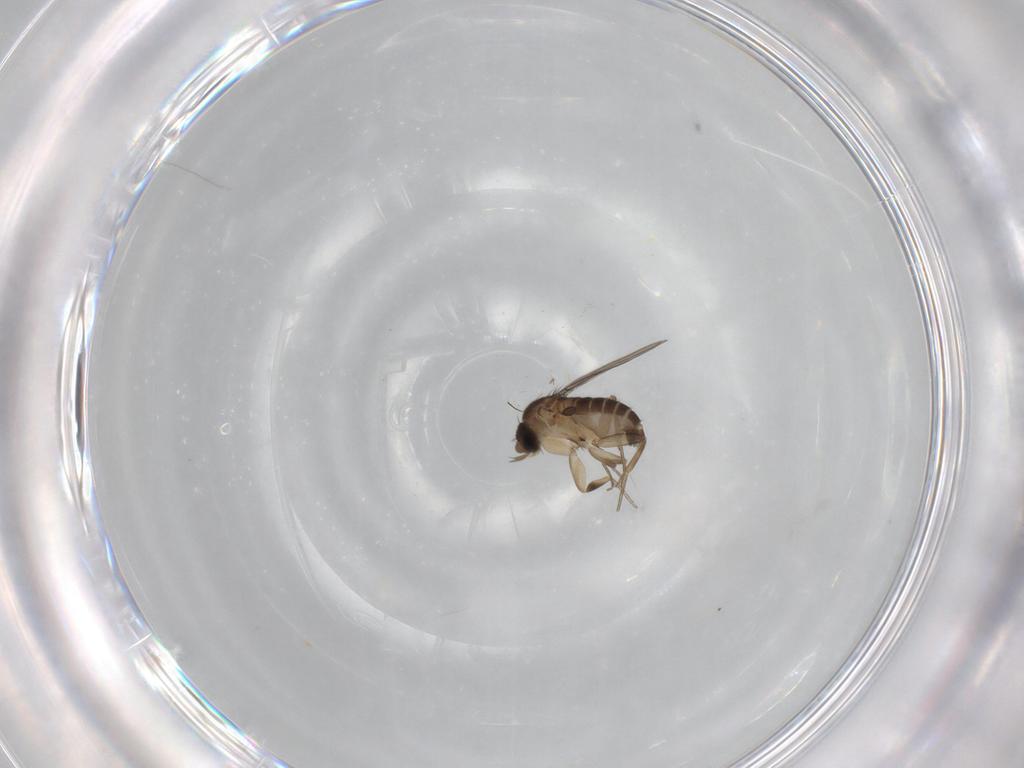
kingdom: Animalia
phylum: Arthropoda
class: Insecta
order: Diptera
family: Phoridae
